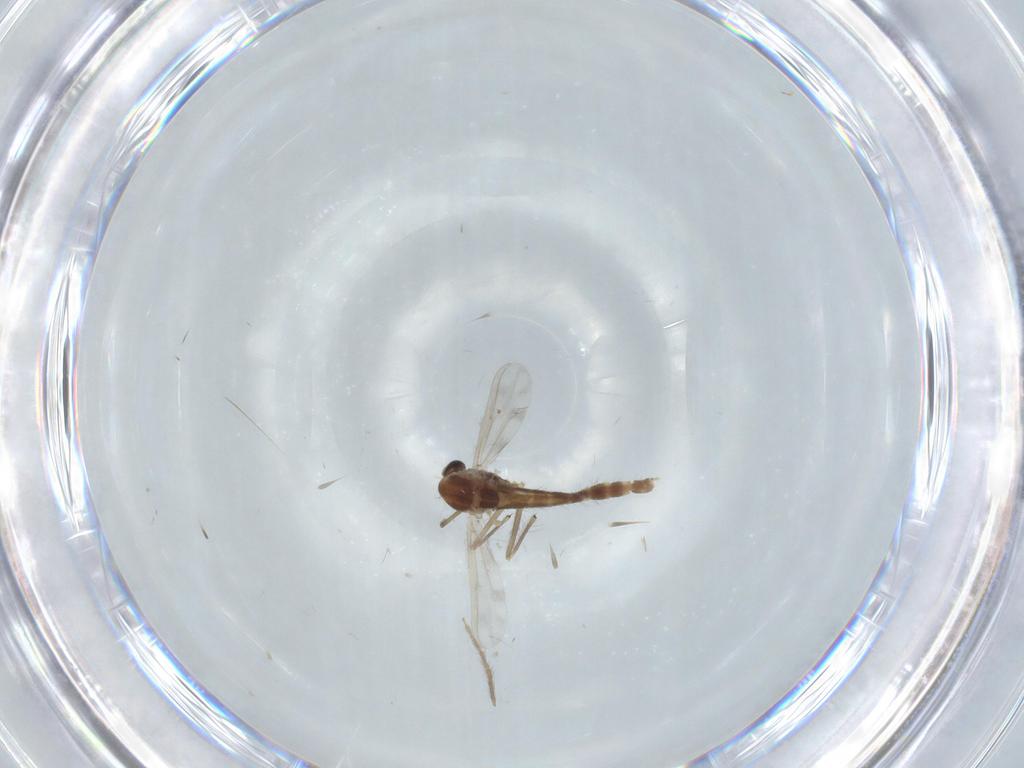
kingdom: Animalia
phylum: Arthropoda
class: Insecta
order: Diptera
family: Chironomidae
